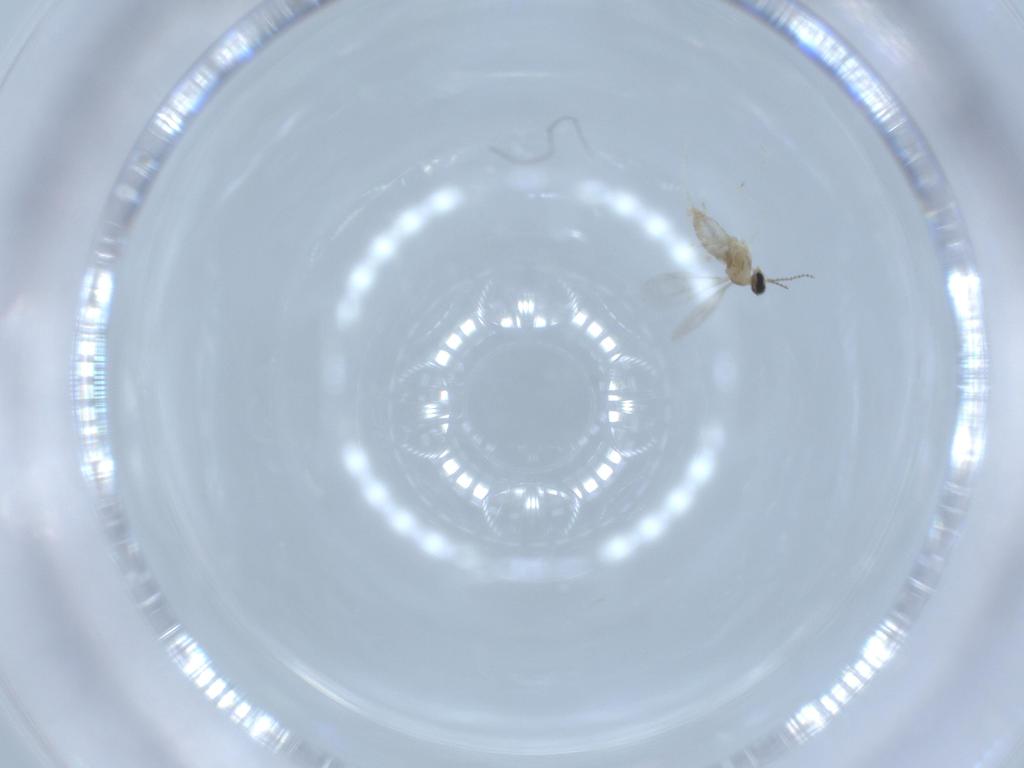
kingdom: Animalia
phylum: Arthropoda
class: Insecta
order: Diptera
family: Cecidomyiidae
